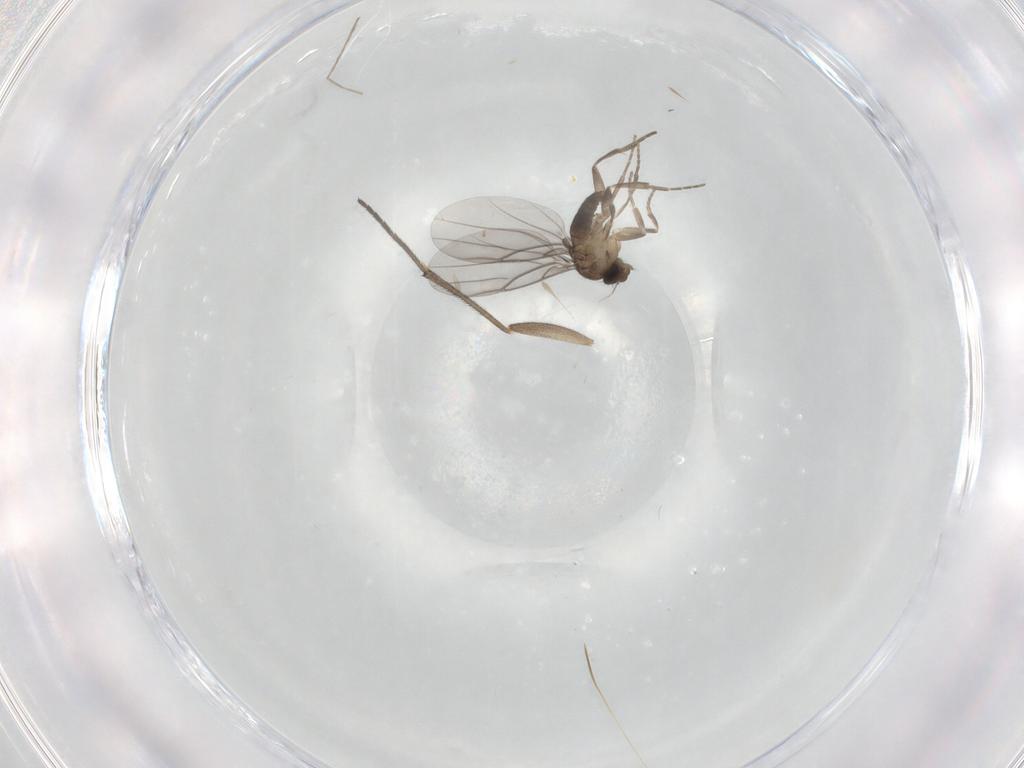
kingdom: Animalia
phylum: Arthropoda
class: Insecta
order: Diptera
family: Sciaridae
